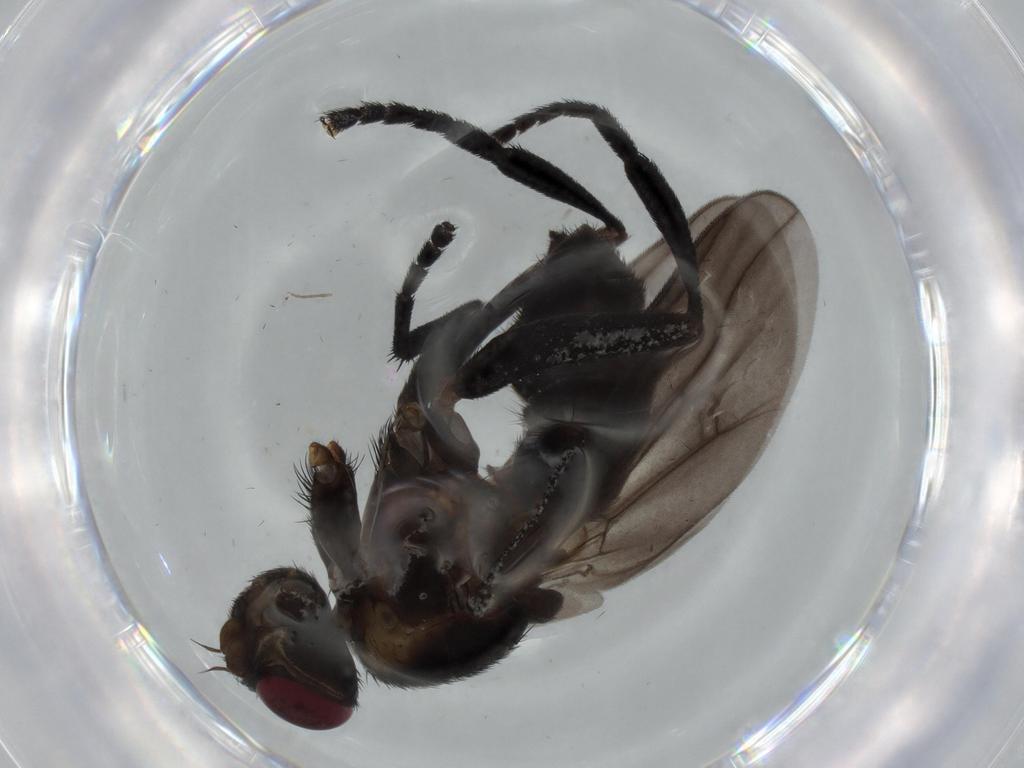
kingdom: Animalia
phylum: Arthropoda
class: Insecta
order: Diptera
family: Calliphoridae
